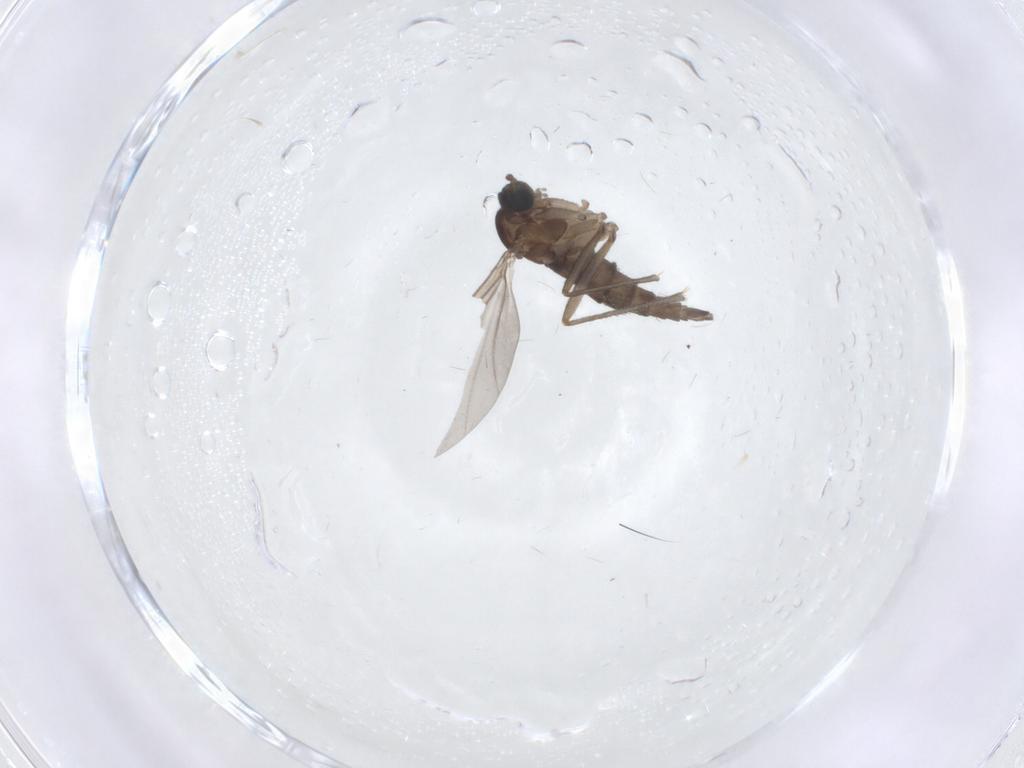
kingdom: Animalia
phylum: Arthropoda
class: Insecta
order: Diptera
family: Sciaridae
